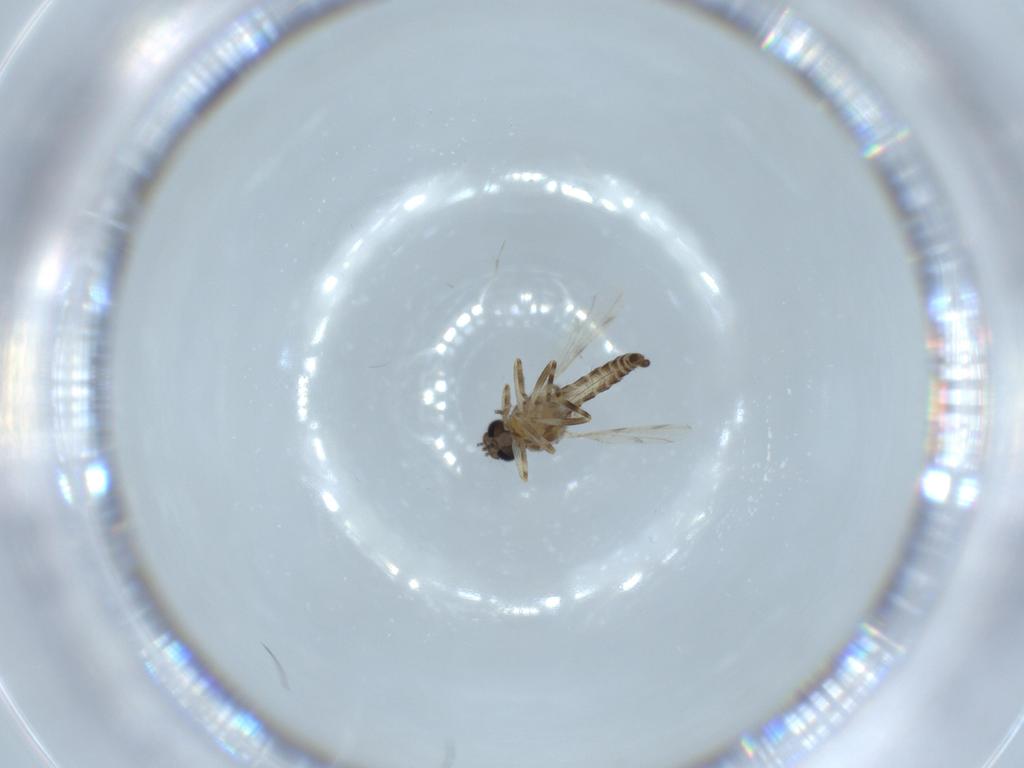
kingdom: Animalia
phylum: Arthropoda
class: Insecta
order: Diptera
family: Ceratopogonidae
